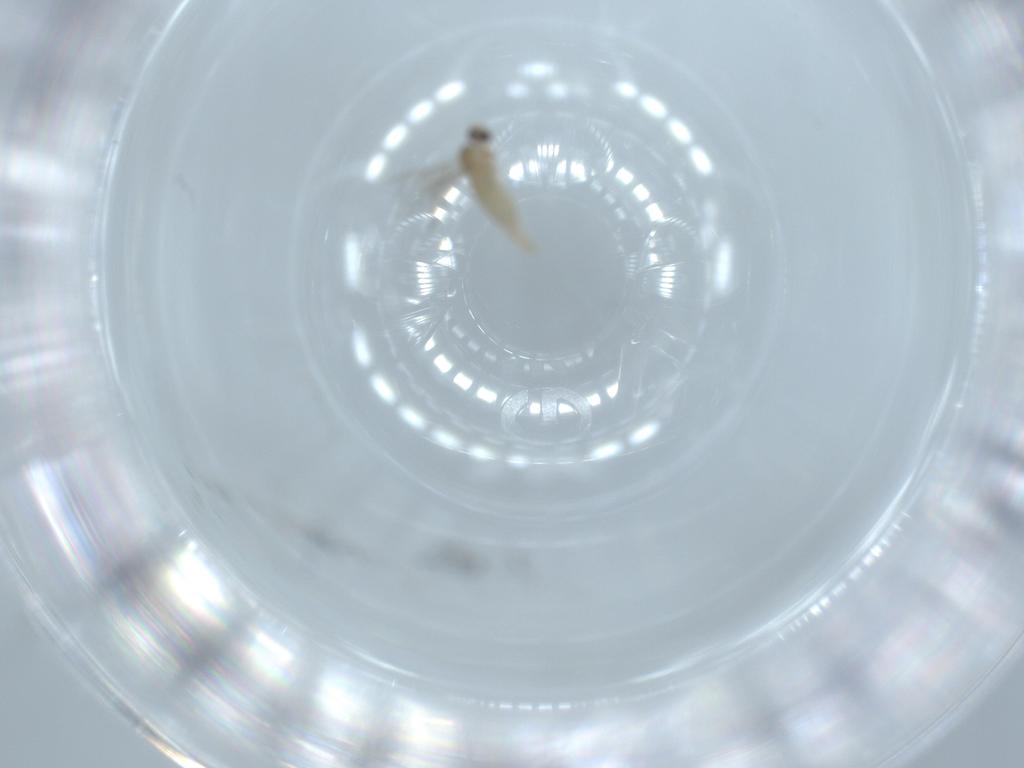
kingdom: Animalia
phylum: Arthropoda
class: Insecta
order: Diptera
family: Cecidomyiidae
